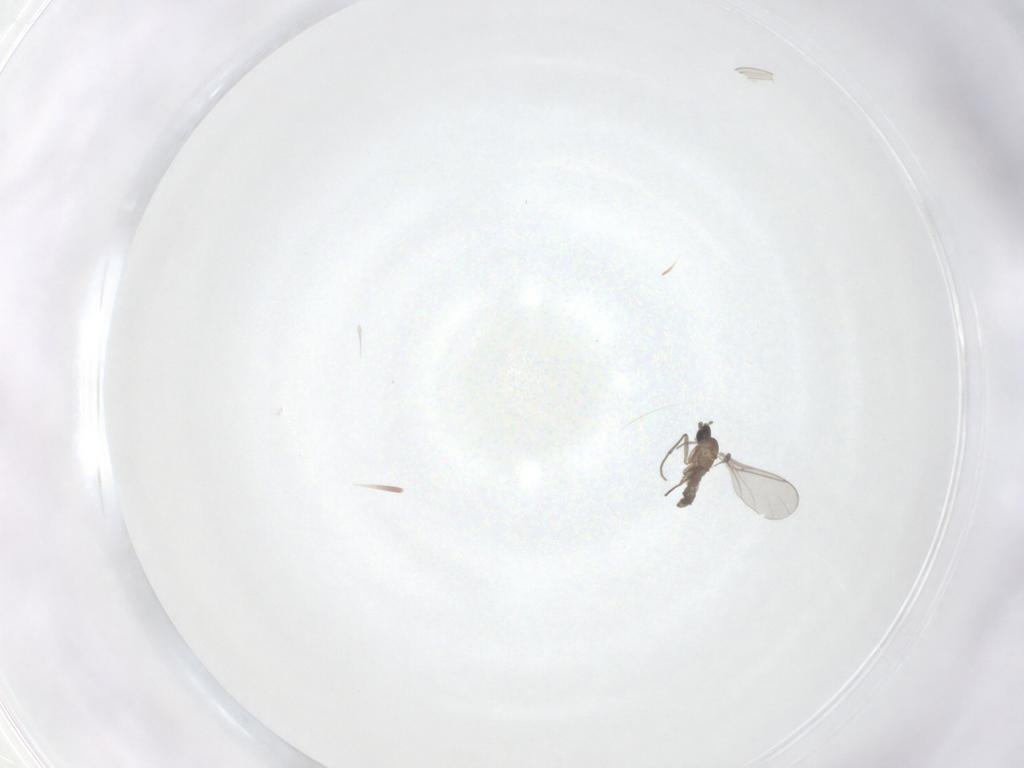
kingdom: Animalia
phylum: Arthropoda
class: Insecta
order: Diptera
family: Sciaridae
